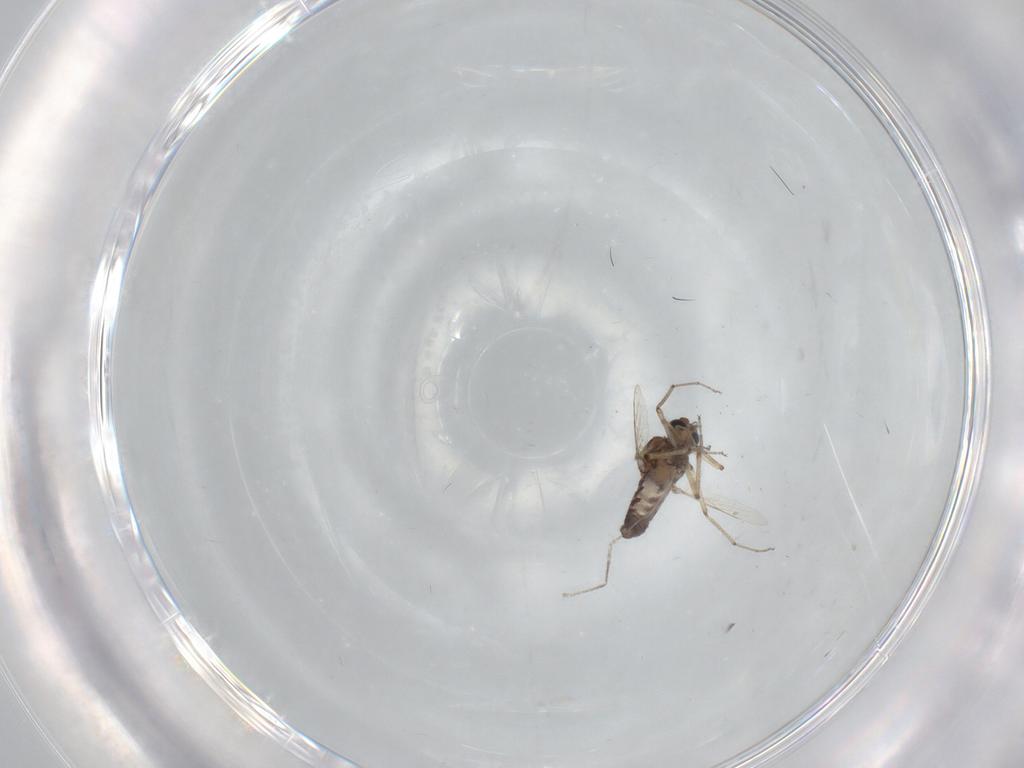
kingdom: Animalia
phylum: Arthropoda
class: Insecta
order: Diptera
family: Ceratopogonidae
